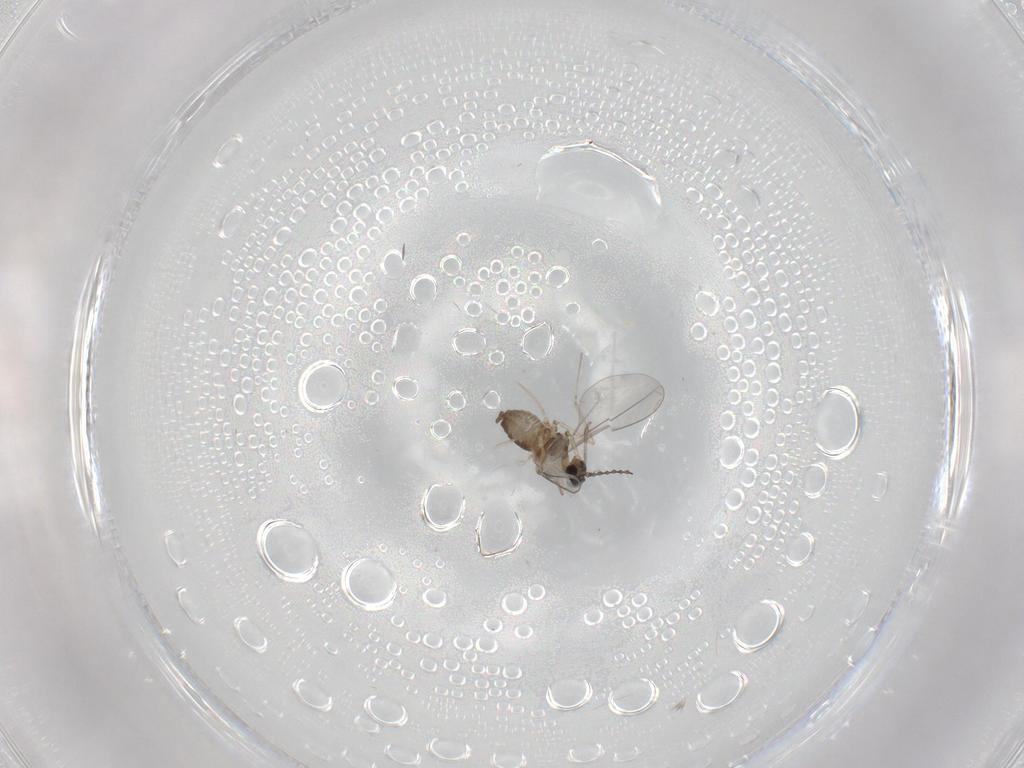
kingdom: Animalia
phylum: Arthropoda
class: Insecta
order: Diptera
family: Cecidomyiidae
